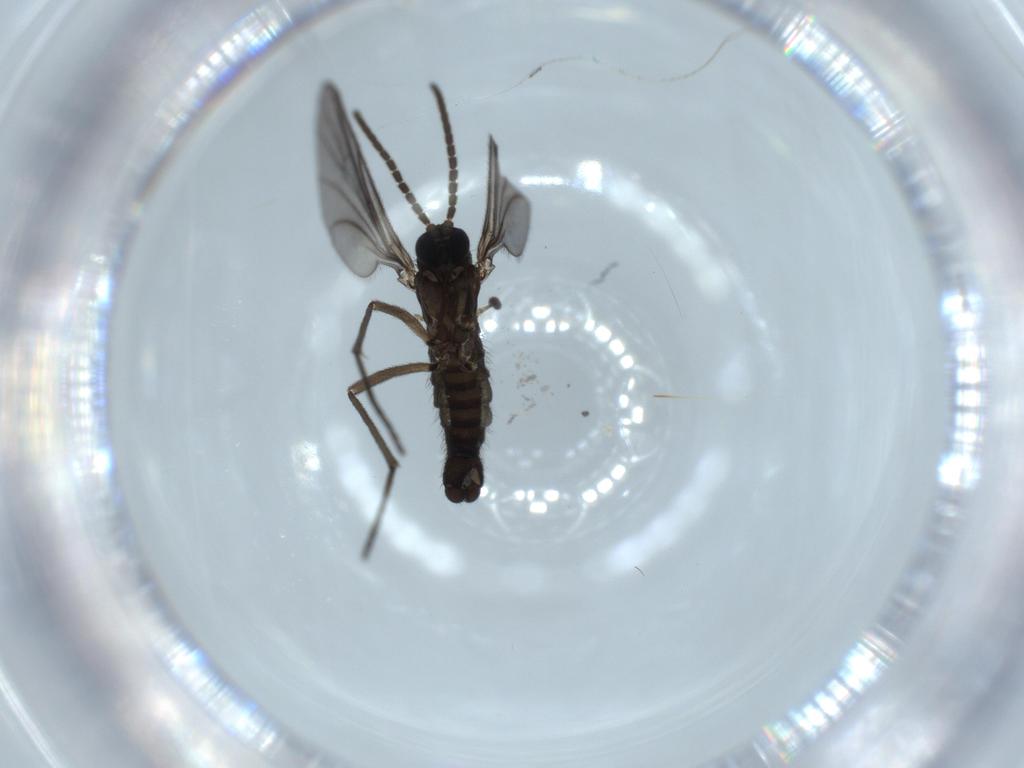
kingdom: Animalia
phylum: Arthropoda
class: Insecta
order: Diptera
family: Sciaridae
